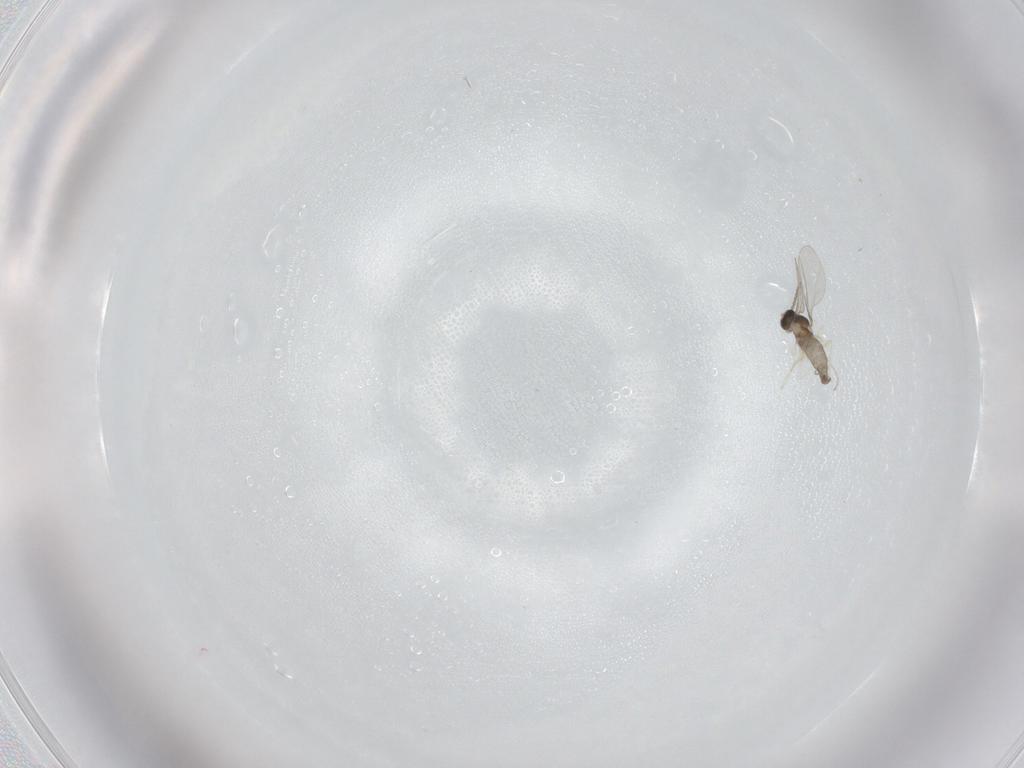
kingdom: Animalia
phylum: Arthropoda
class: Insecta
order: Diptera
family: Cecidomyiidae
